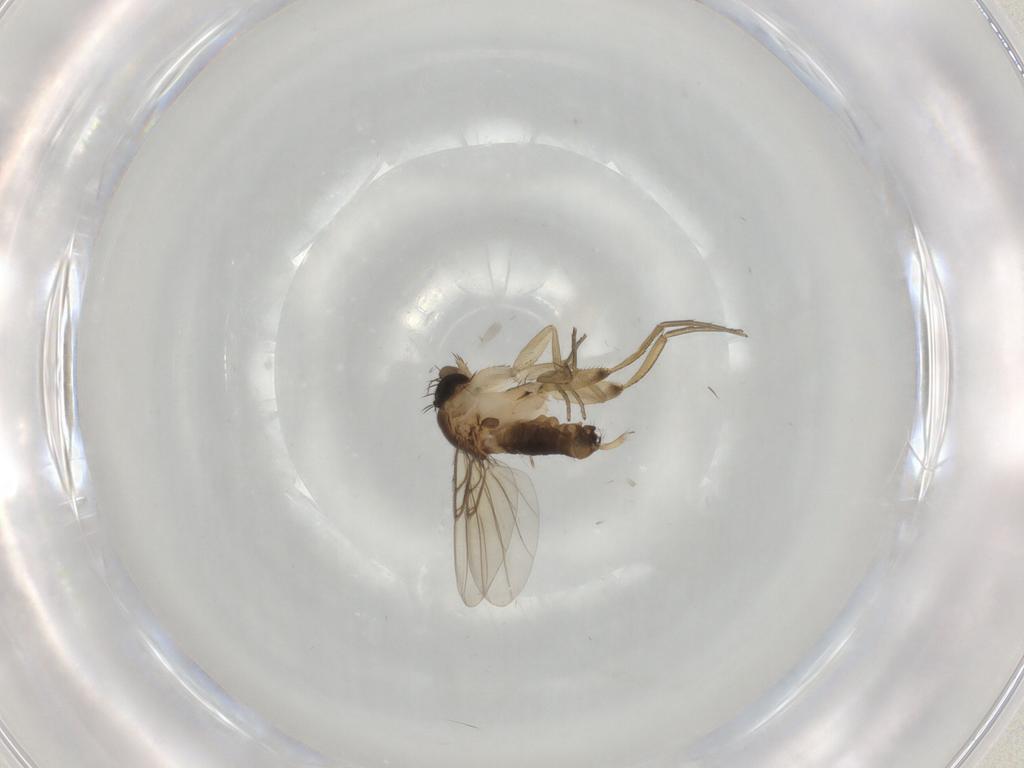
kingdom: Animalia
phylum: Arthropoda
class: Insecta
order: Diptera
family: Phoridae
